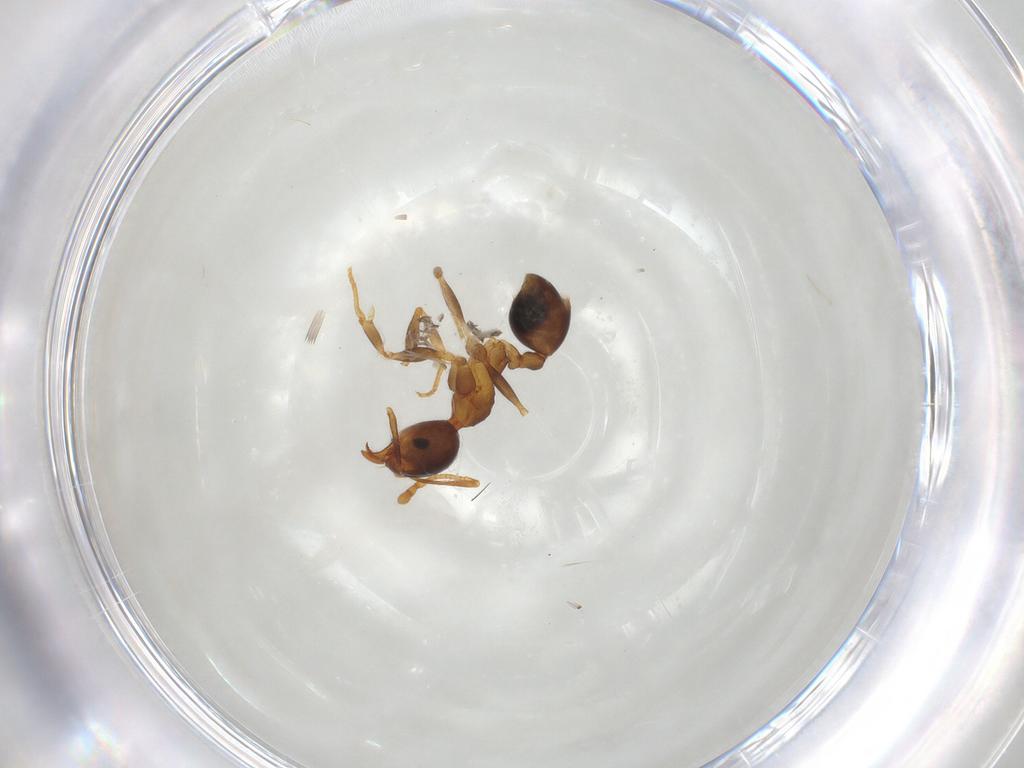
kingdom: Animalia
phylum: Arthropoda
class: Insecta
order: Hymenoptera
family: Formicidae
